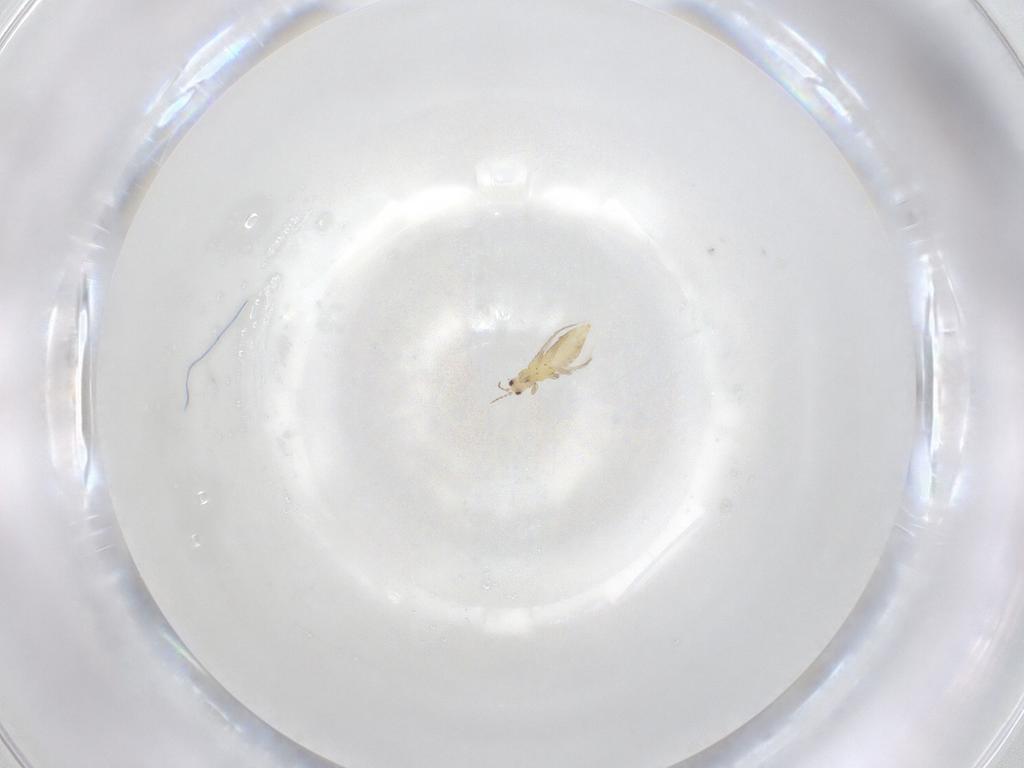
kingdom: Animalia
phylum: Arthropoda
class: Insecta
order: Thysanoptera
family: Thripidae
